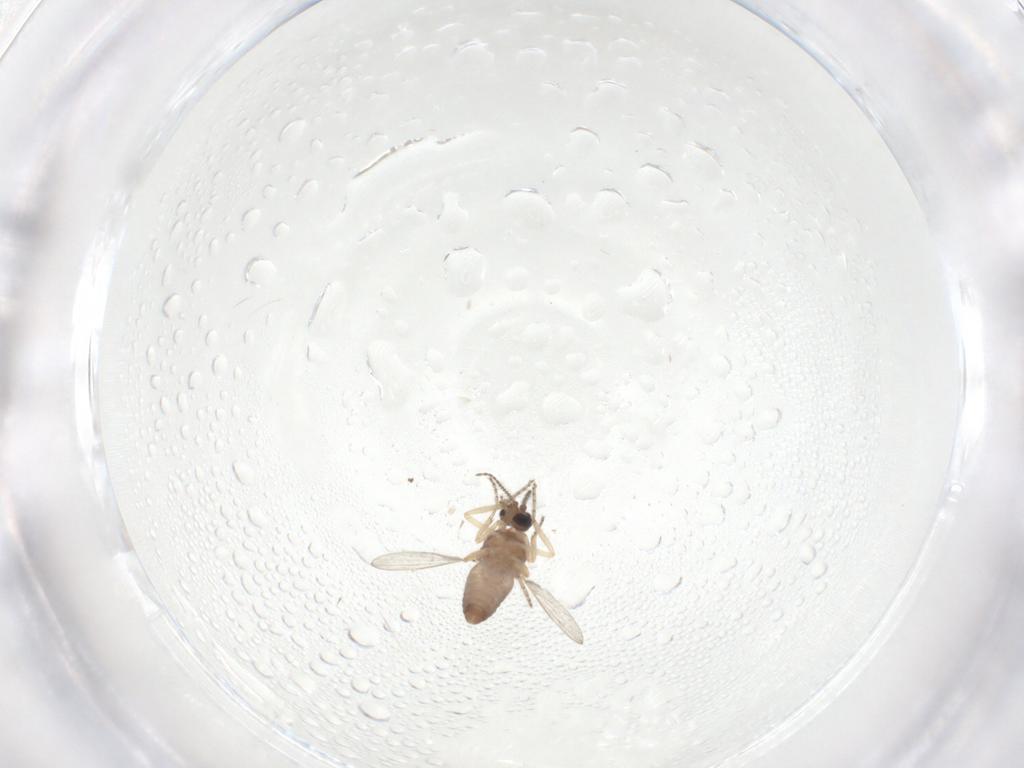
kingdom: Animalia
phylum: Arthropoda
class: Insecta
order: Diptera
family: Ceratopogonidae
